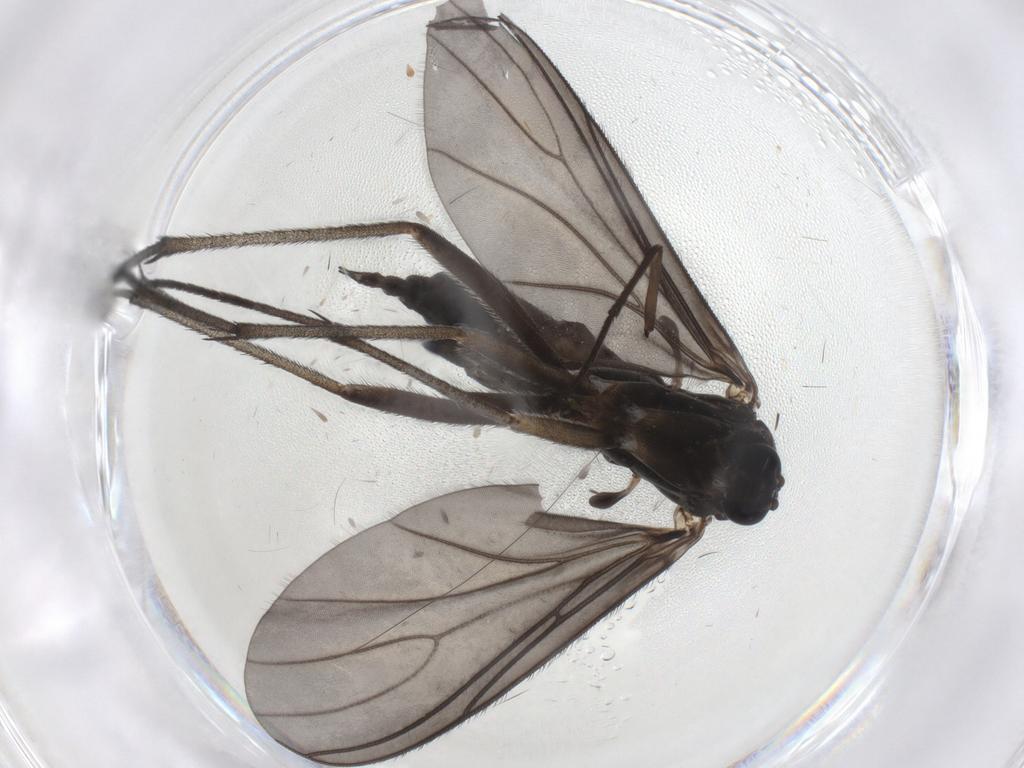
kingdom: Animalia
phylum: Arthropoda
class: Insecta
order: Diptera
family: Sciaridae
